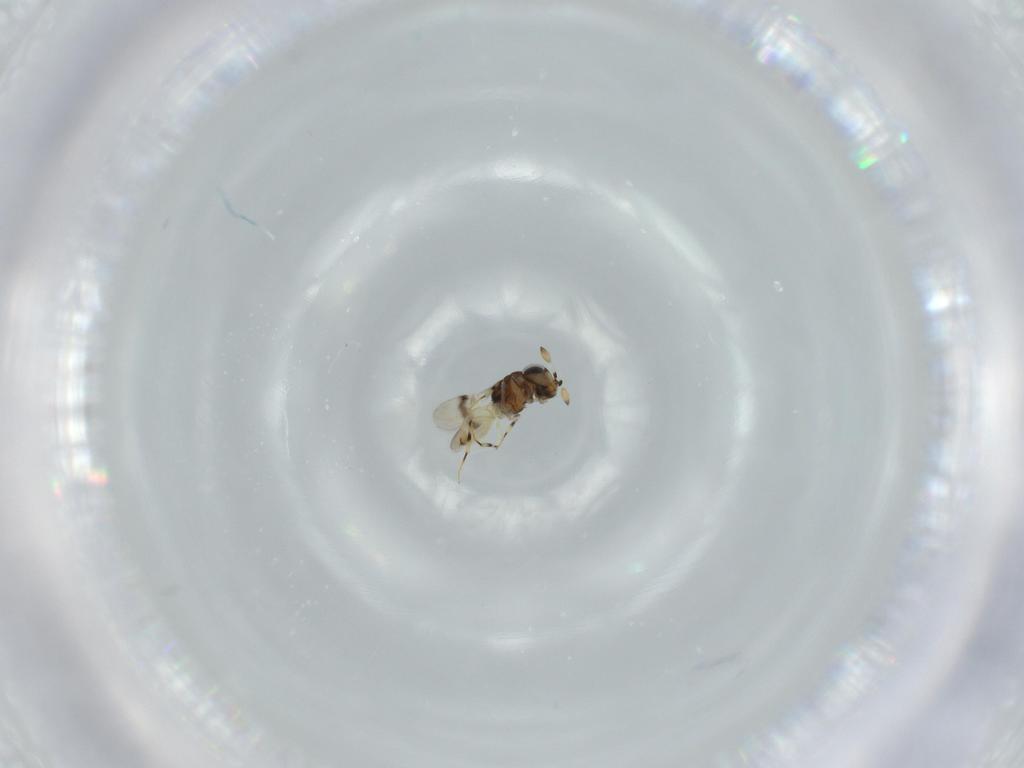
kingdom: Animalia
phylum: Arthropoda
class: Insecta
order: Hymenoptera
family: Scelionidae
